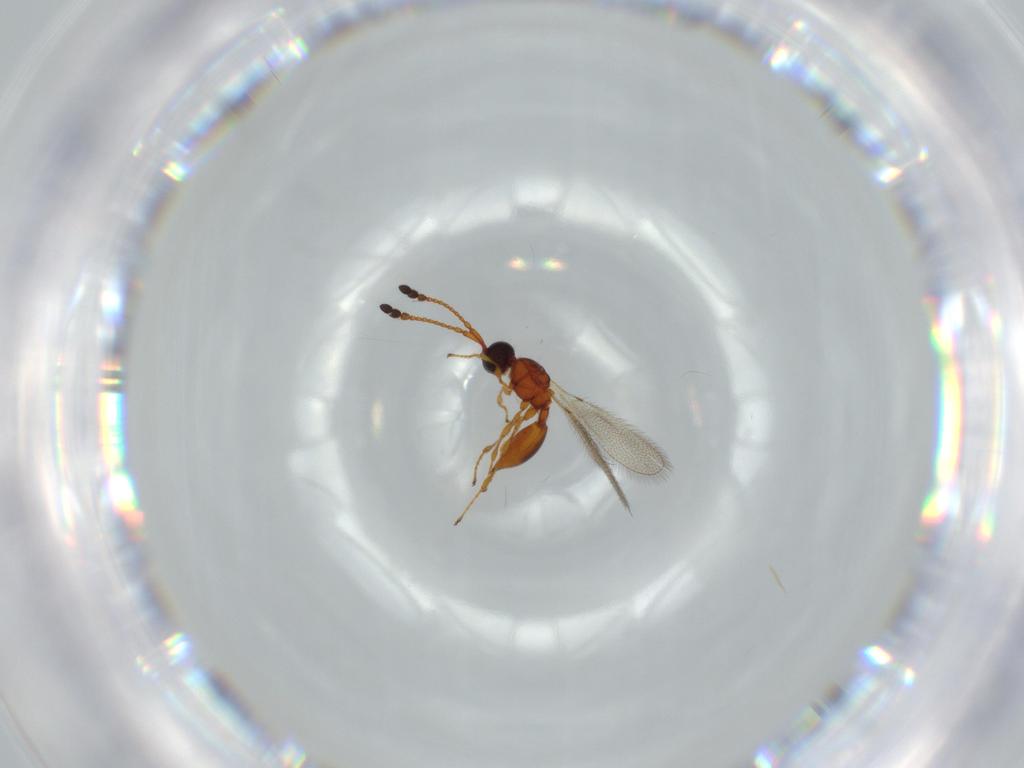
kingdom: Animalia
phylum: Arthropoda
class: Insecta
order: Hymenoptera
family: Diapriidae
